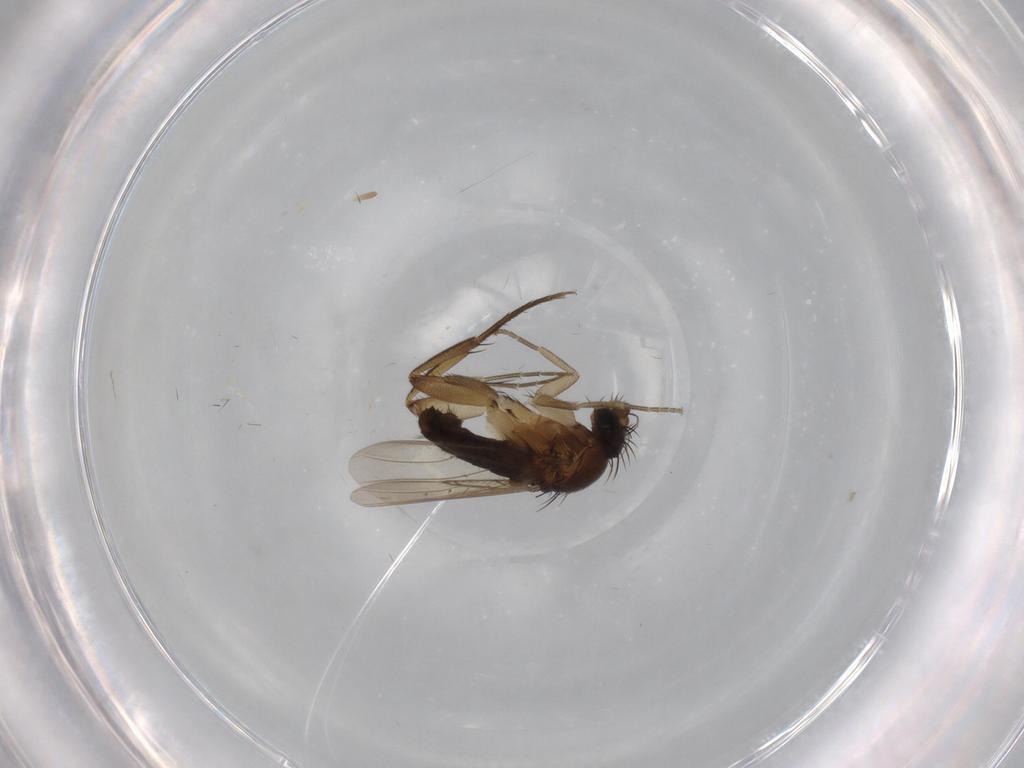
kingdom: Animalia
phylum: Arthropoda
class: Insecta
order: Diptera
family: Phoridae
